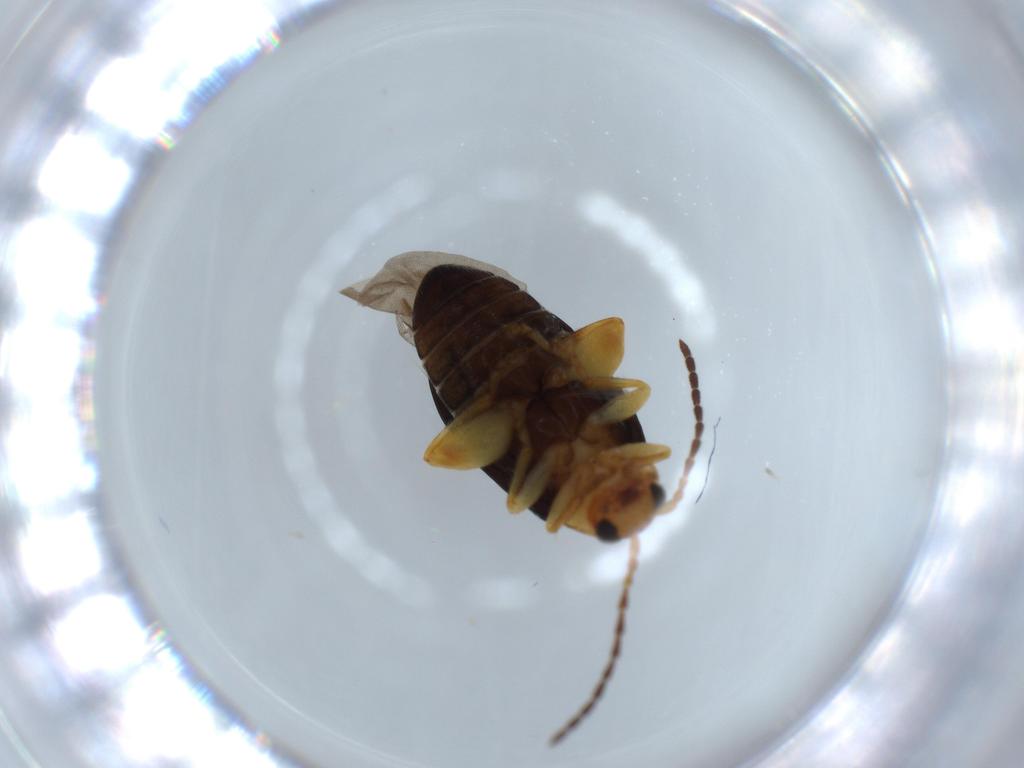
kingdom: Animalia
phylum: Arthropoda
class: Insecta
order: Coleoptera
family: Chrysomelidae
